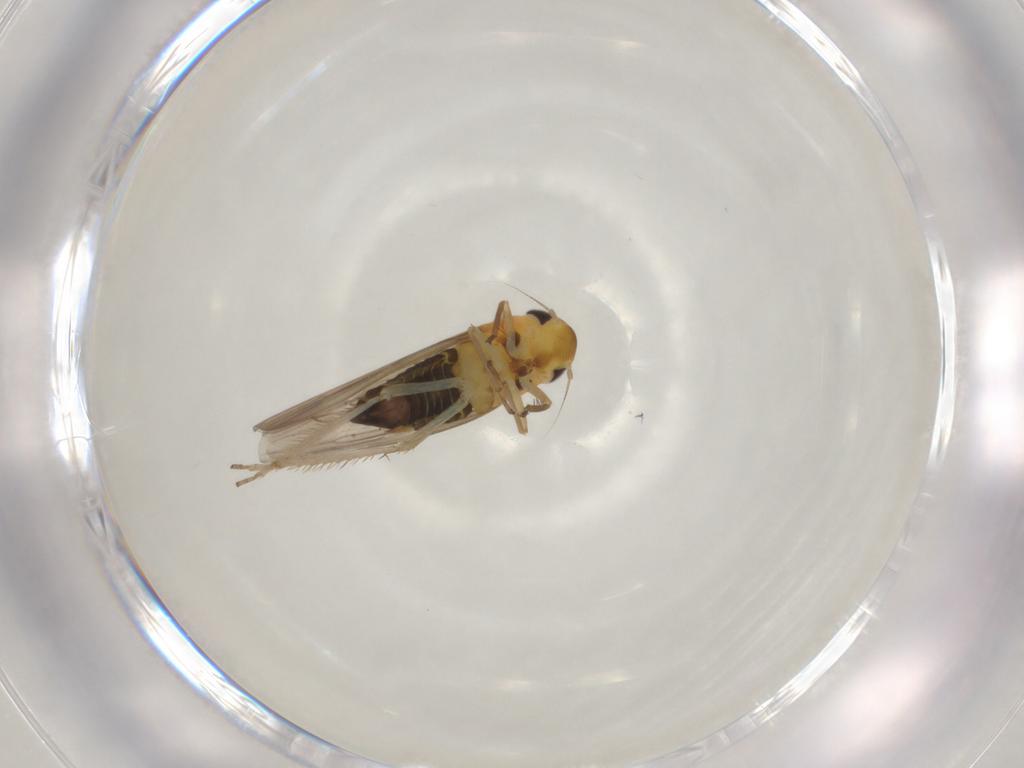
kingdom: Animalia
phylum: Arthropoda
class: Insecta
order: Hemiptera
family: Cicadellidae
